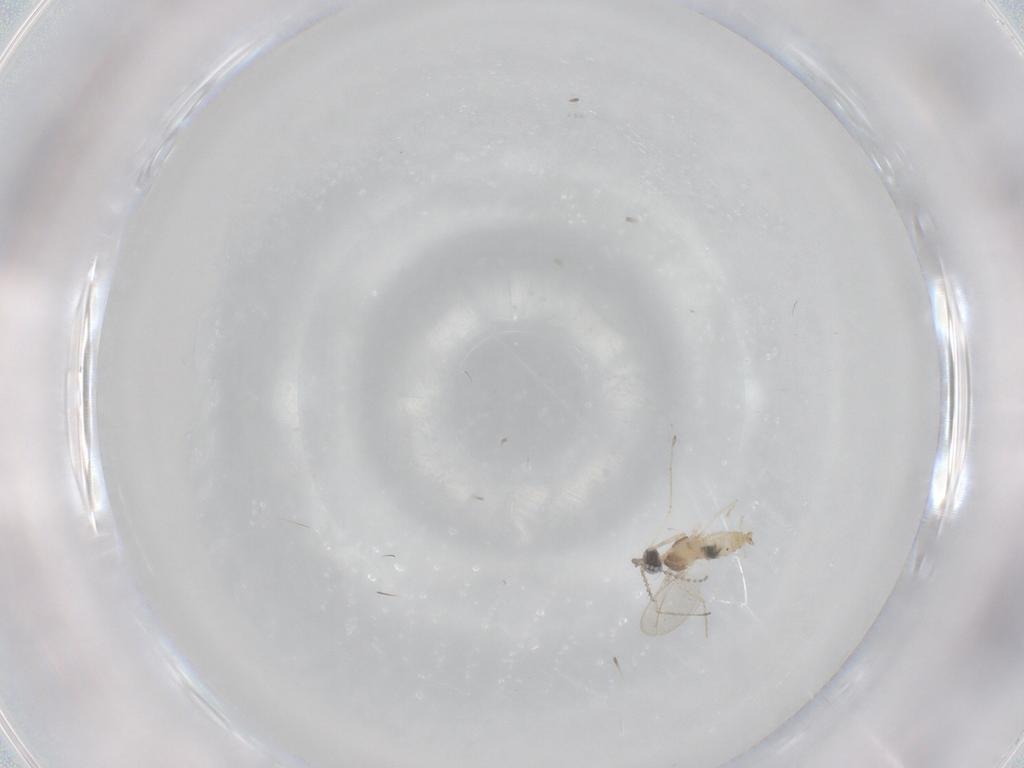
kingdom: Animalia
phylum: Arthropoda
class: Insecta
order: Diptera
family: Cecidomyiidae
